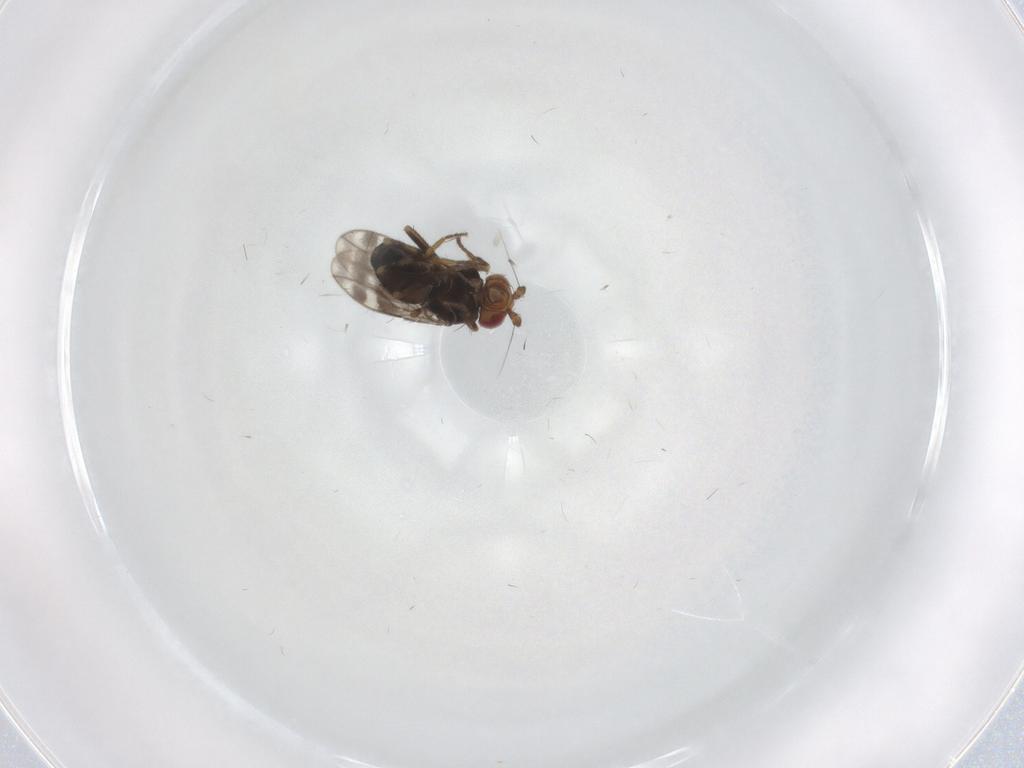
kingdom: Animalia
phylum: Arthropoda
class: Insecta
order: Diptera
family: Sphaeroceridae
